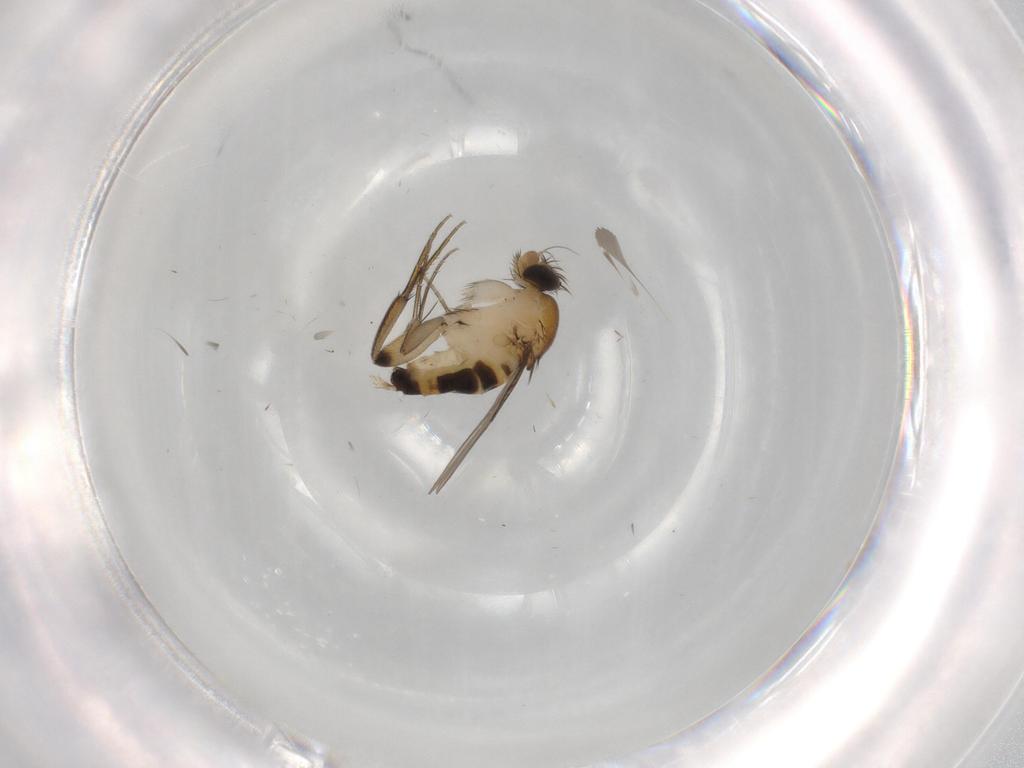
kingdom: Animalia
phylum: Arthropoda
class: Insecta
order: Diptera
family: Phoridae
